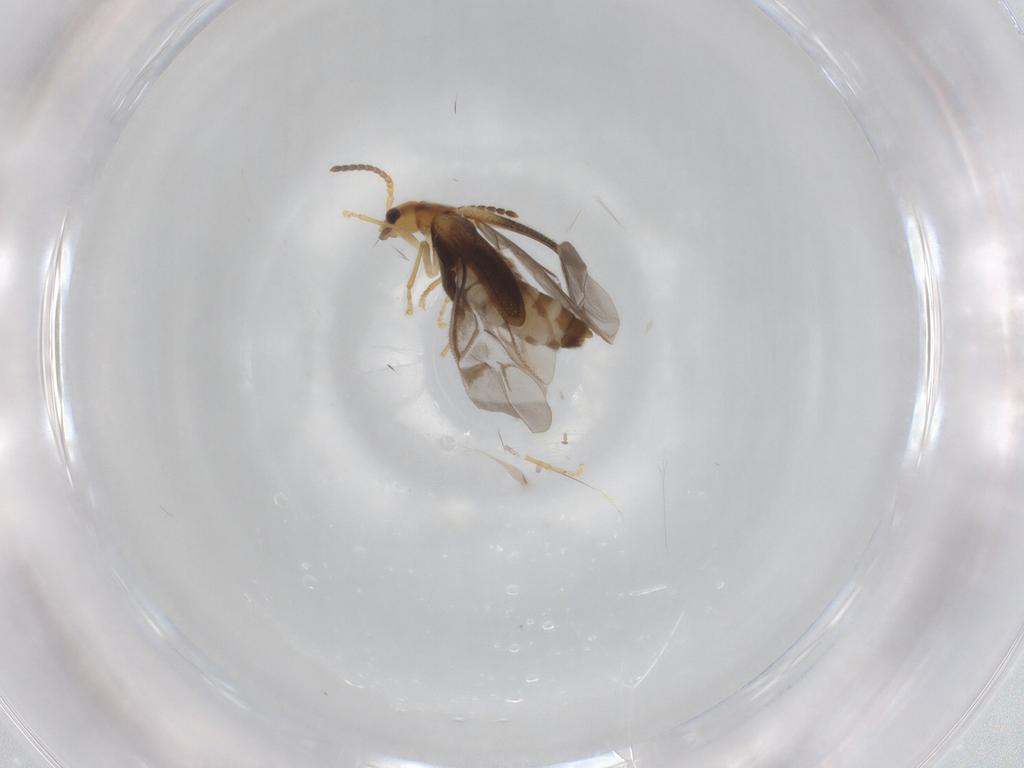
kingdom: Animalia
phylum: Arthropoda
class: Insecta
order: Coleoptera
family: Cantharidae
